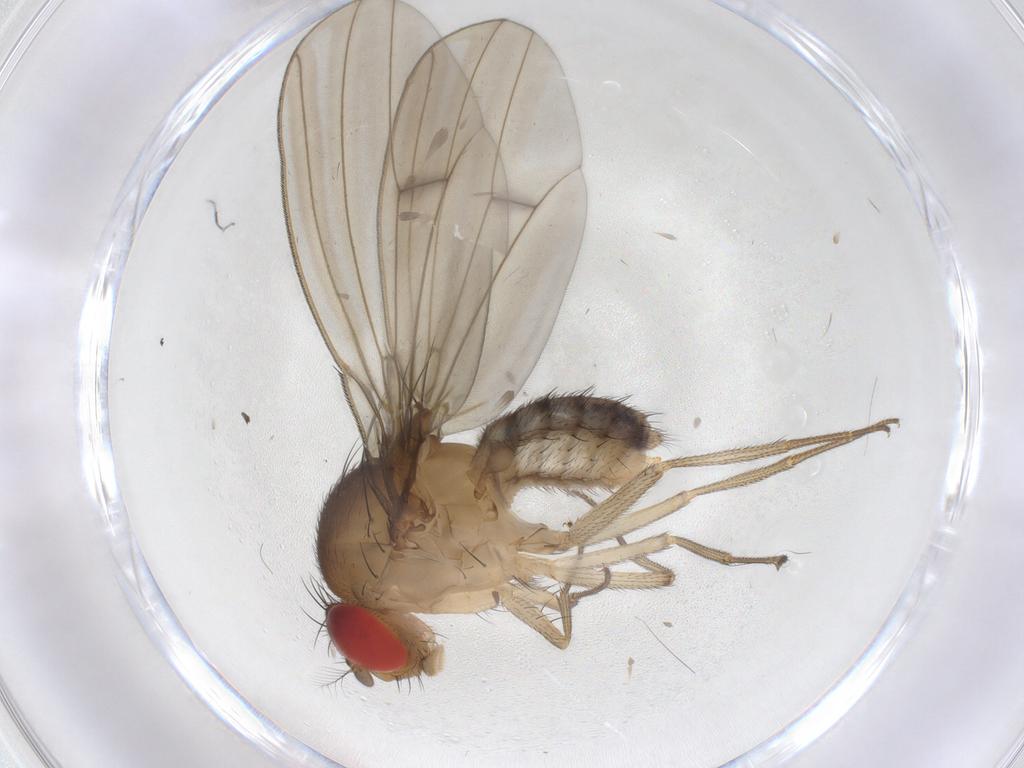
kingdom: Animalia
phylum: Arthropoda
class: Insecta
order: Diptera
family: Drosophilidae
